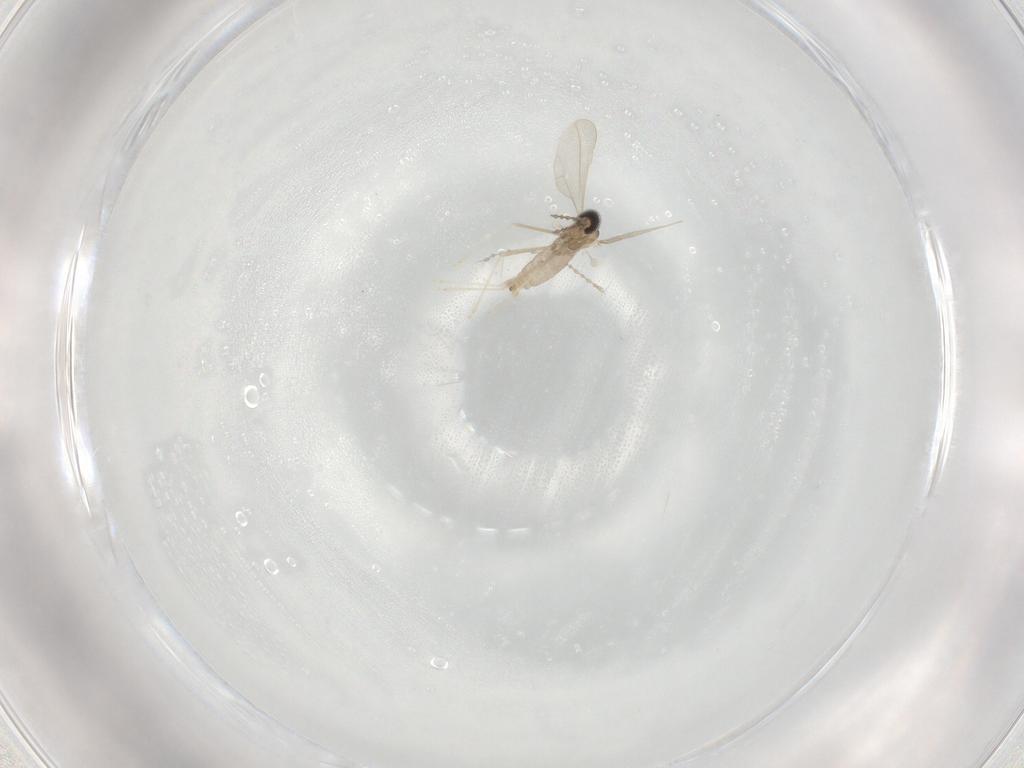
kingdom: Animalia
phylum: Arthropoda
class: Insecta
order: Diptera
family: Cecidomyiidae
